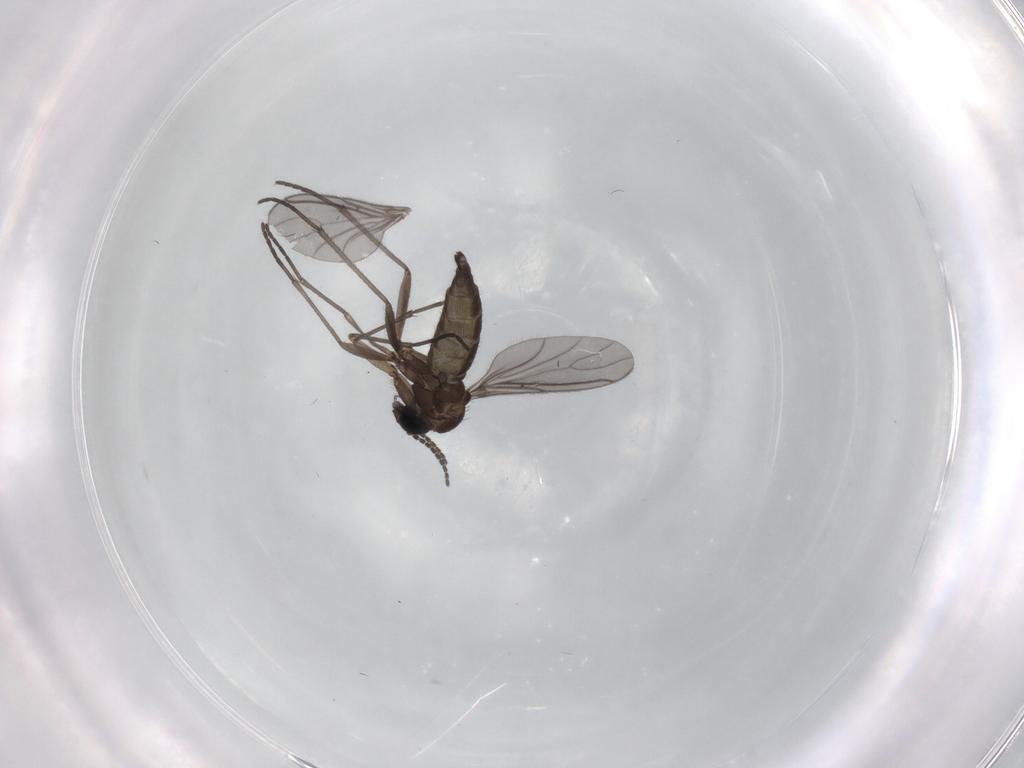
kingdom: Animalia
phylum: Arthropoda
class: Insecta
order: Diptera
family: Sciaridae
